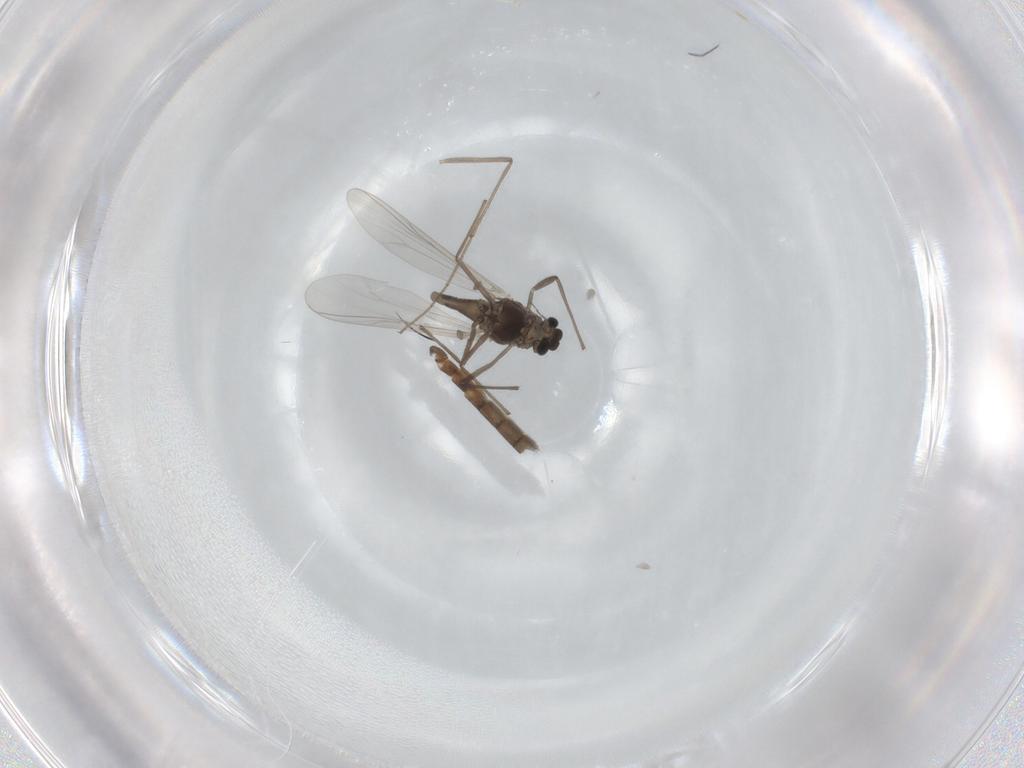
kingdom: Animalia
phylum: Arthropoda
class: Insecta
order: Diptera
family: Chironomidae
